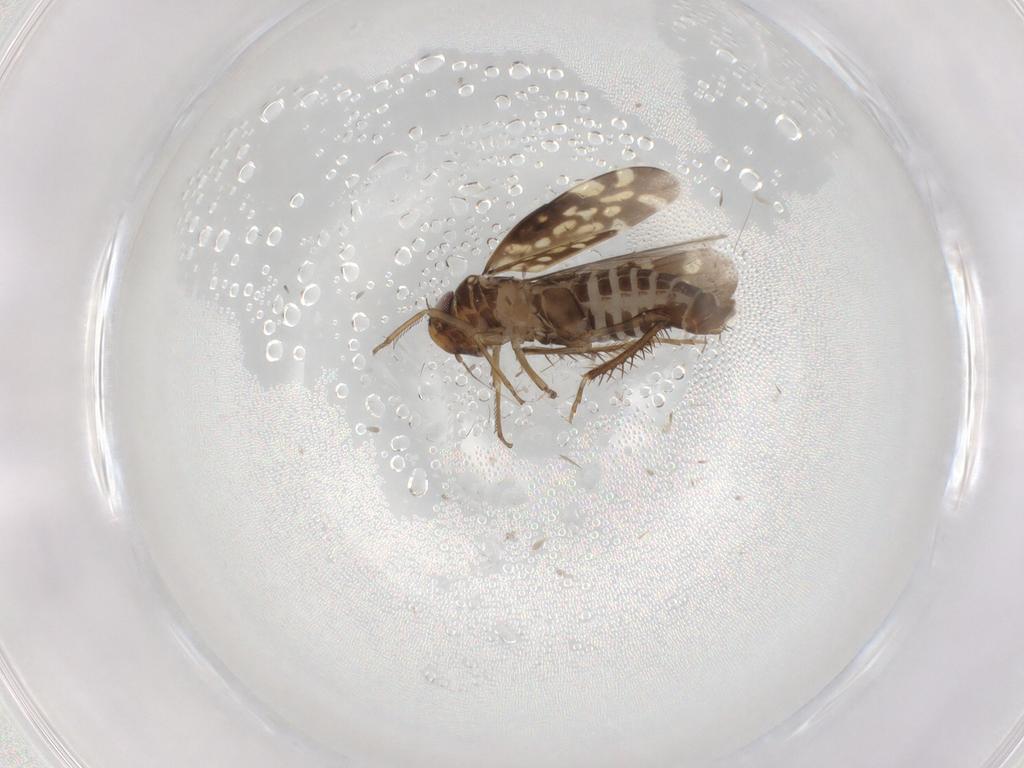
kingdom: Animalia
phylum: Arthropoda
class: Insecta
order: Hemiptera
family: Cicadellidae
